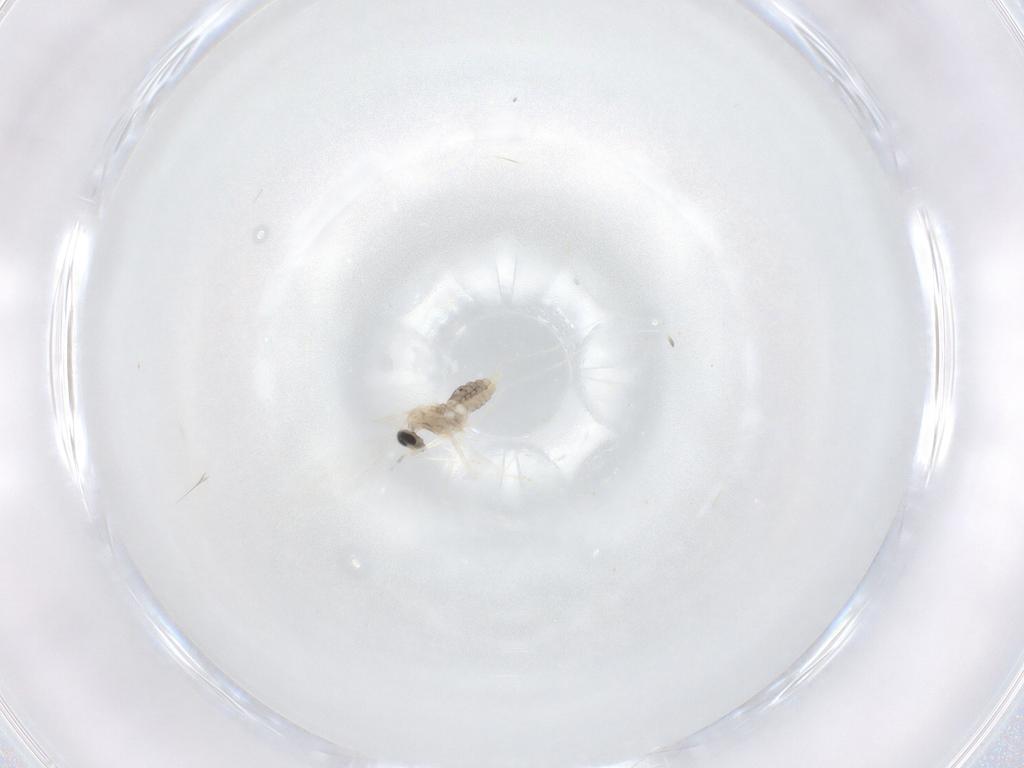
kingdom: Animalia
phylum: Arthropoda
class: Insecta
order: Diptera
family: Cecidomyiidae
